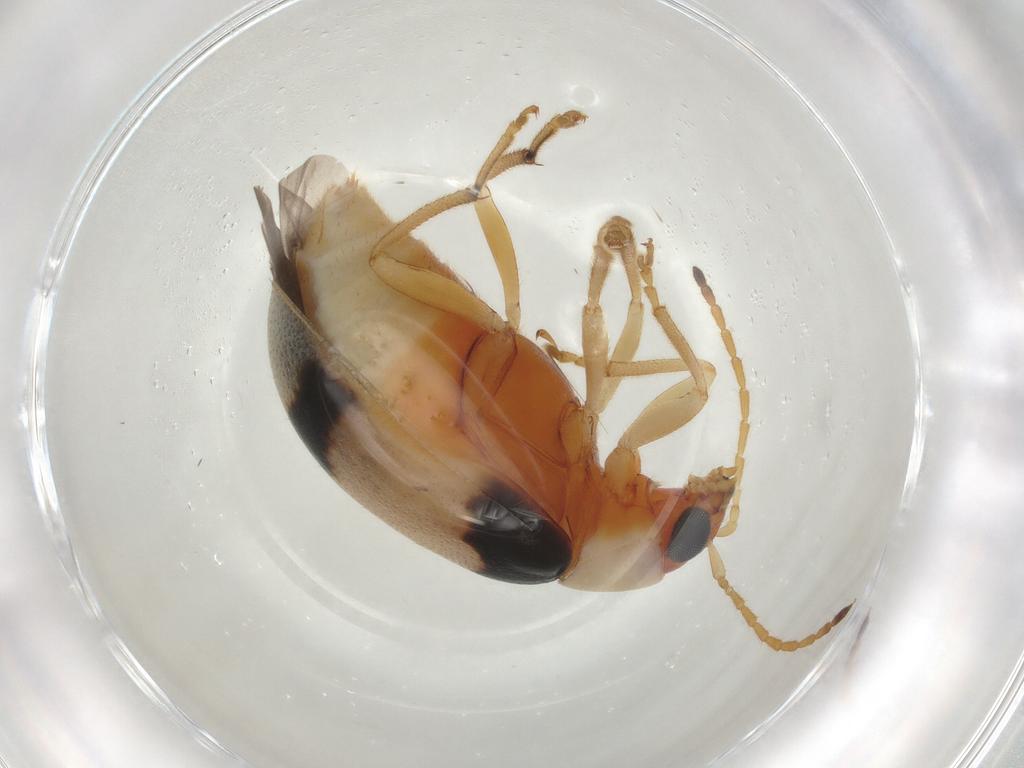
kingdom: Animalia
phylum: Arthropoda
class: Insecta
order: Coleoptera
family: Chrysomelidae
